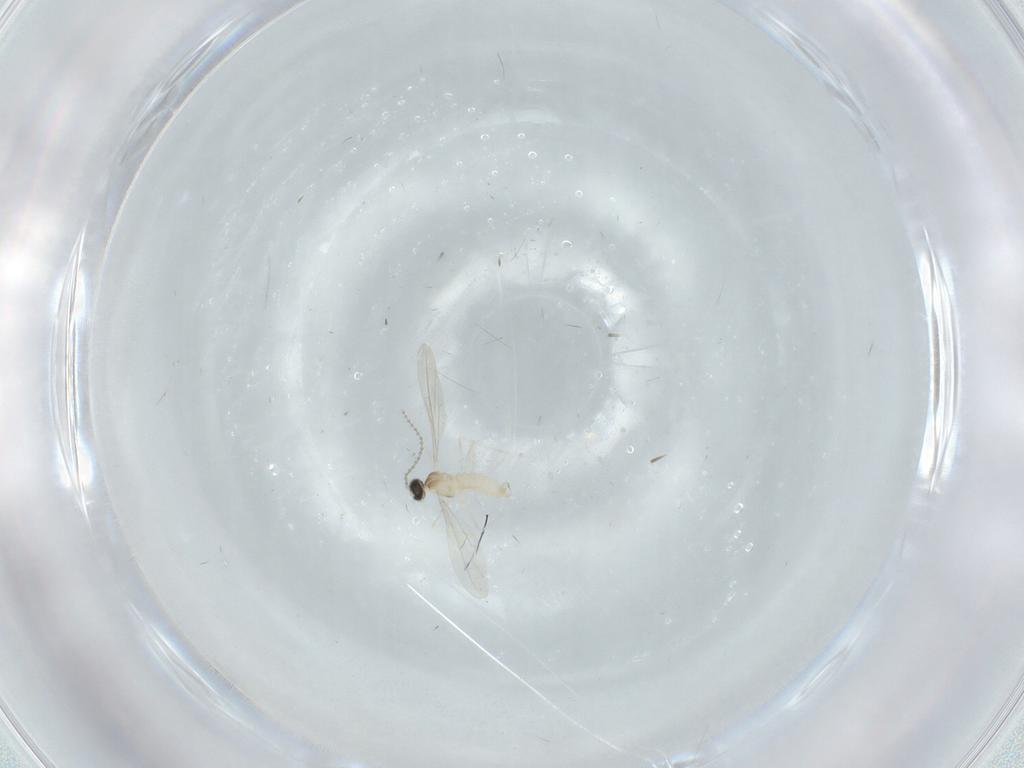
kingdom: Animalia
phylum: Arthropoda
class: Insecta
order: Diptera
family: Cecidomyiidae
